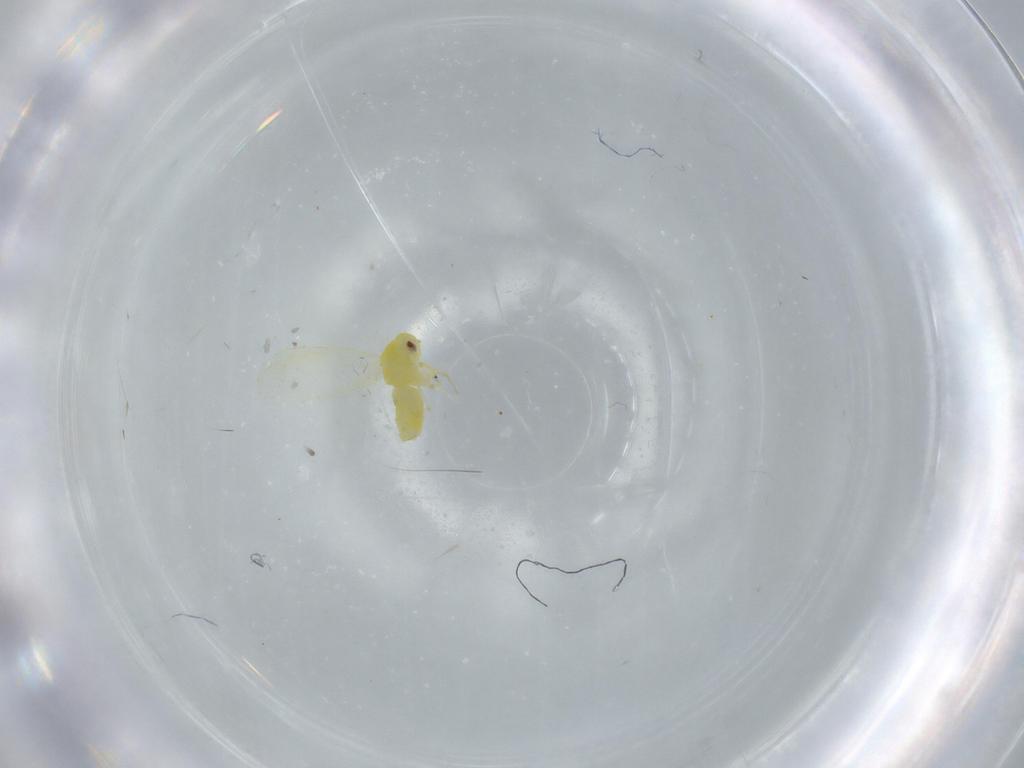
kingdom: Animalia
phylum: Arthropoda
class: Insecta
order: Hemiptera
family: Aleyrodidae
